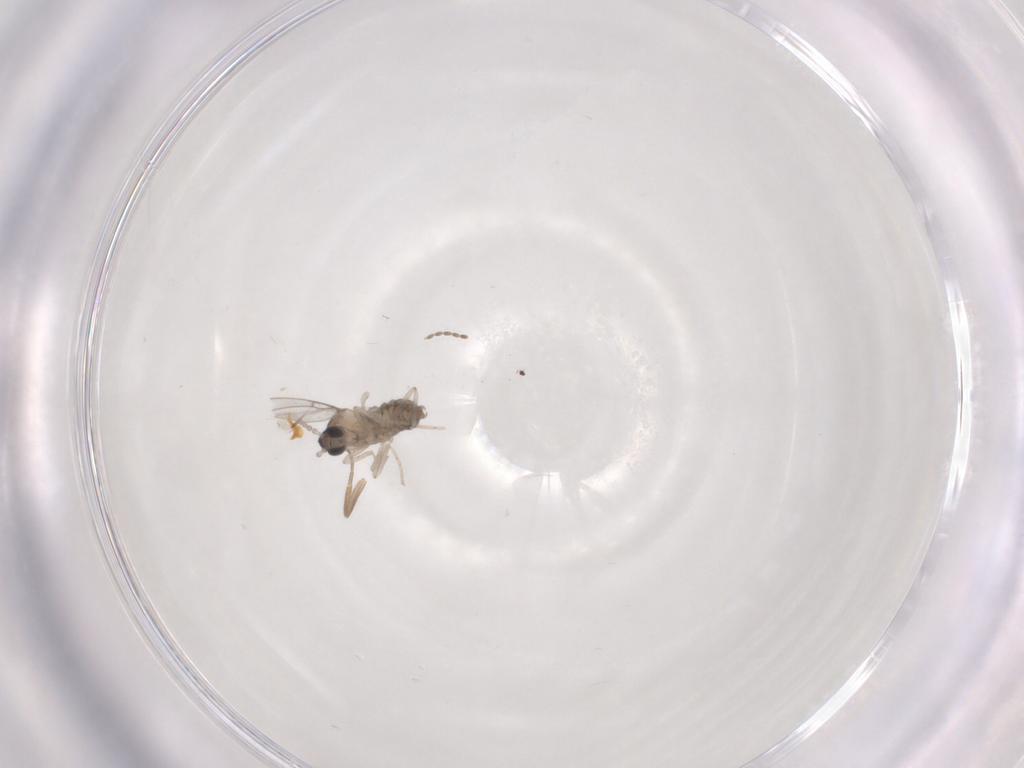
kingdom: Animalia
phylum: Arthropoda
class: Insecta
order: Diptera
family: Cecidomyiidae
